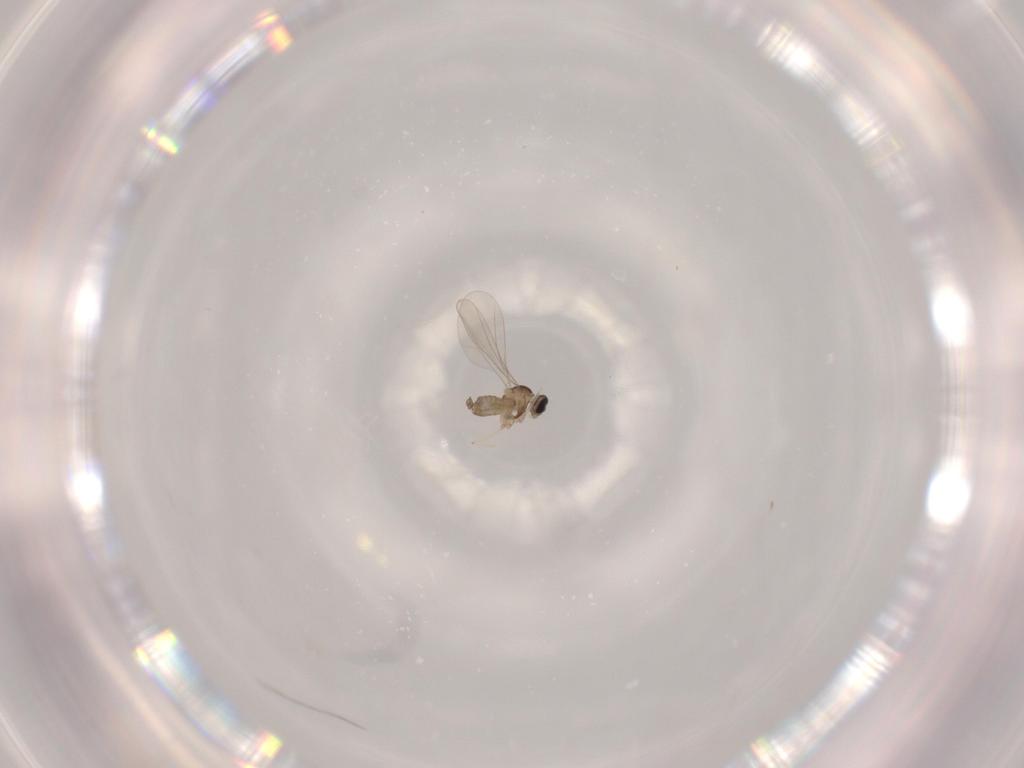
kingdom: Animalia
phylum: Arthropoda
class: Insecta
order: Diptera
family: Cecidomyiidae
